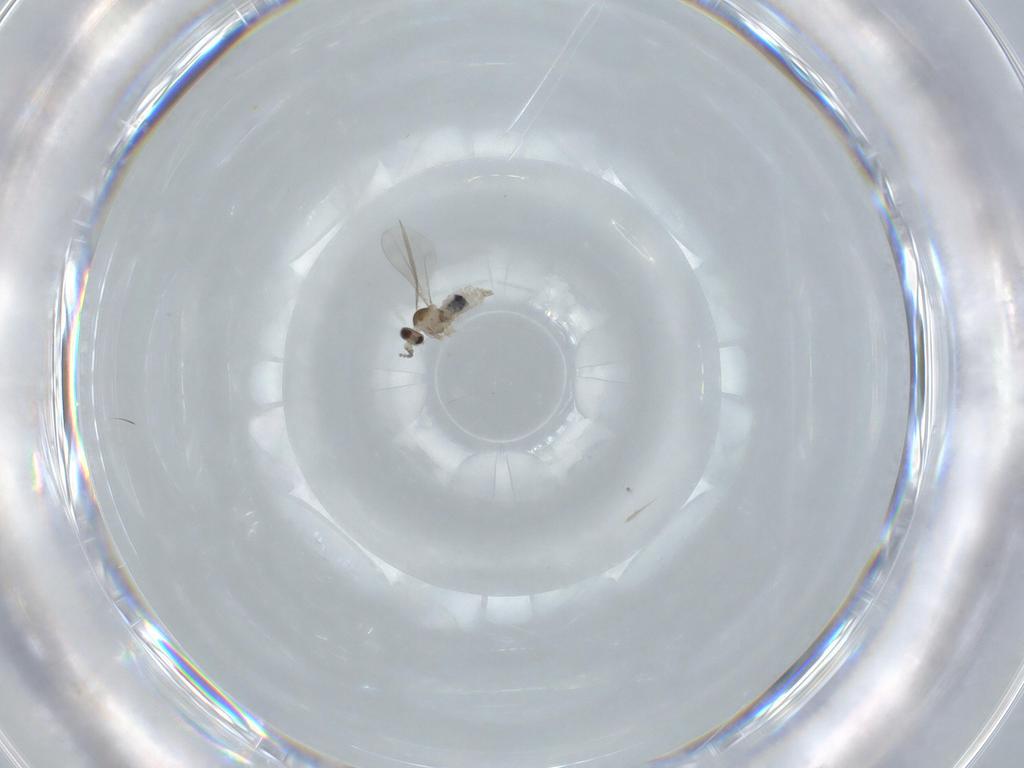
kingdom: Animalia
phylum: Arthropoda
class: Insecta
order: Diptera
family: Cecidomyiidae
